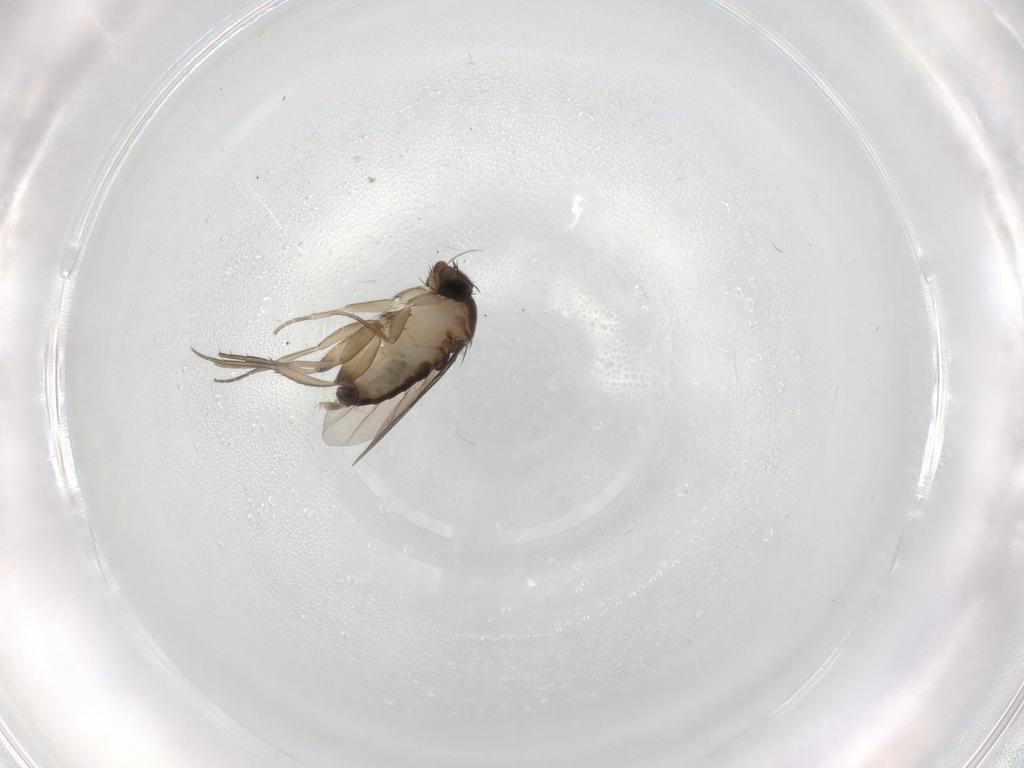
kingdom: Animalia
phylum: Arthropoda
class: Insecta
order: Diptera
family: Phoridae
